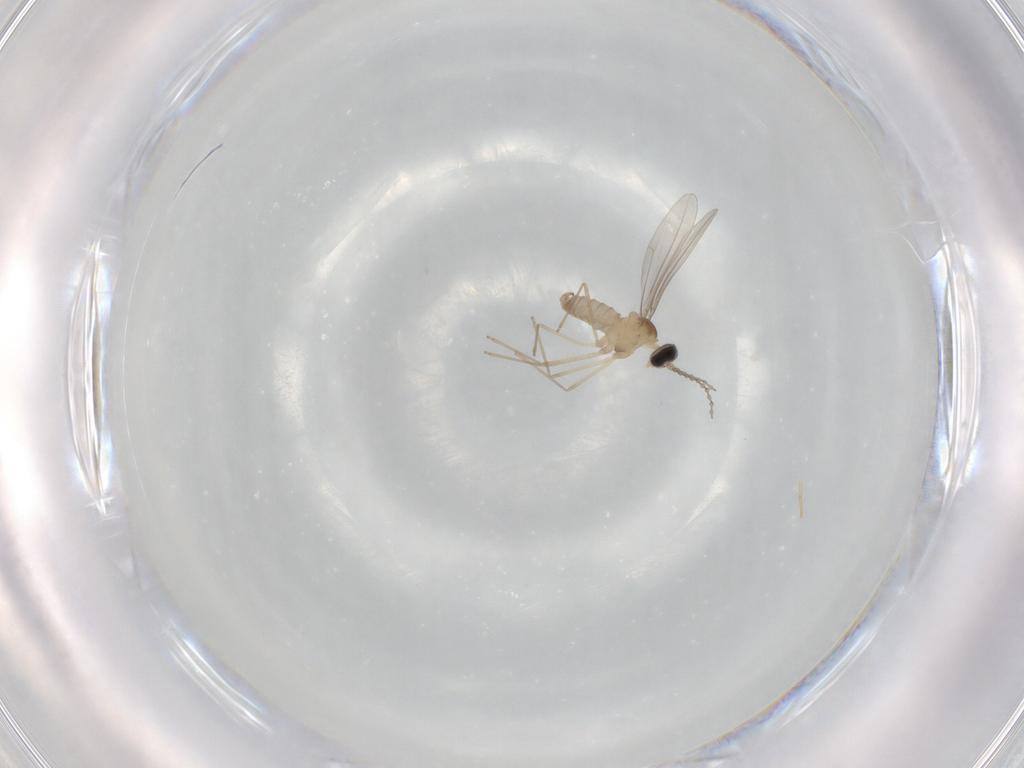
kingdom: Animalia
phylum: Arthropoda
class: Insecta
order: Diptera
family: Cecidomyiidae
